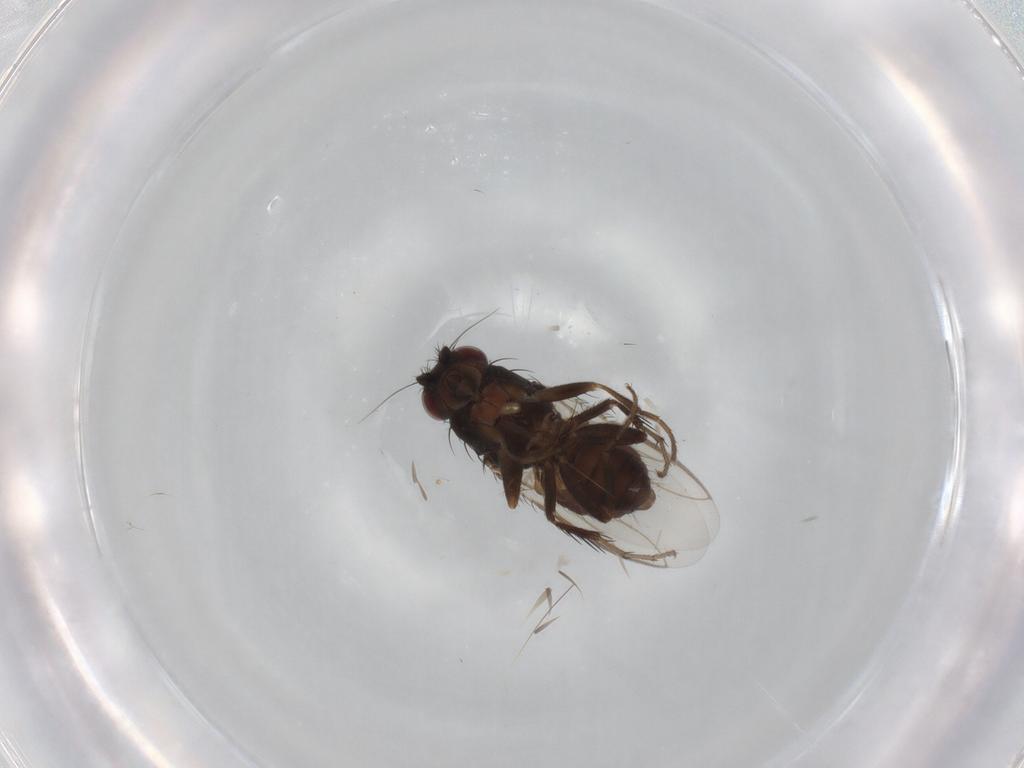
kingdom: Animalia
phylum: Arthropoda
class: Insecta
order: Diptera
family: Sphaeroceridae
